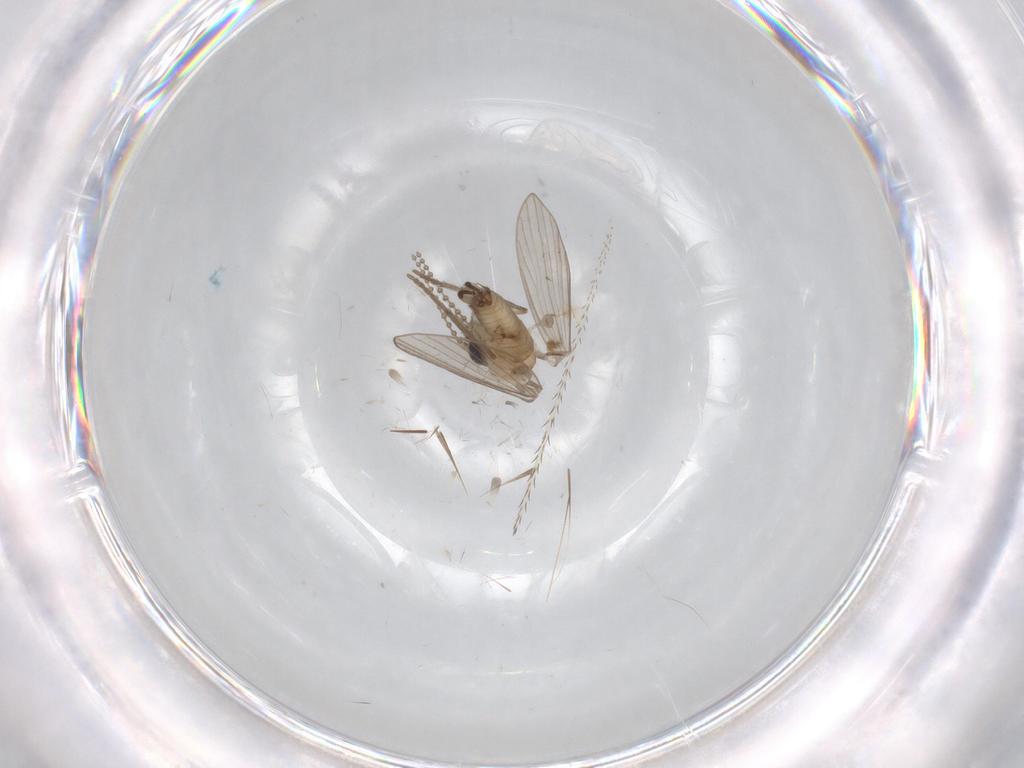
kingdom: Animalia
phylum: Arthropoda
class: Insecta
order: Diptera
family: Psychodidae
